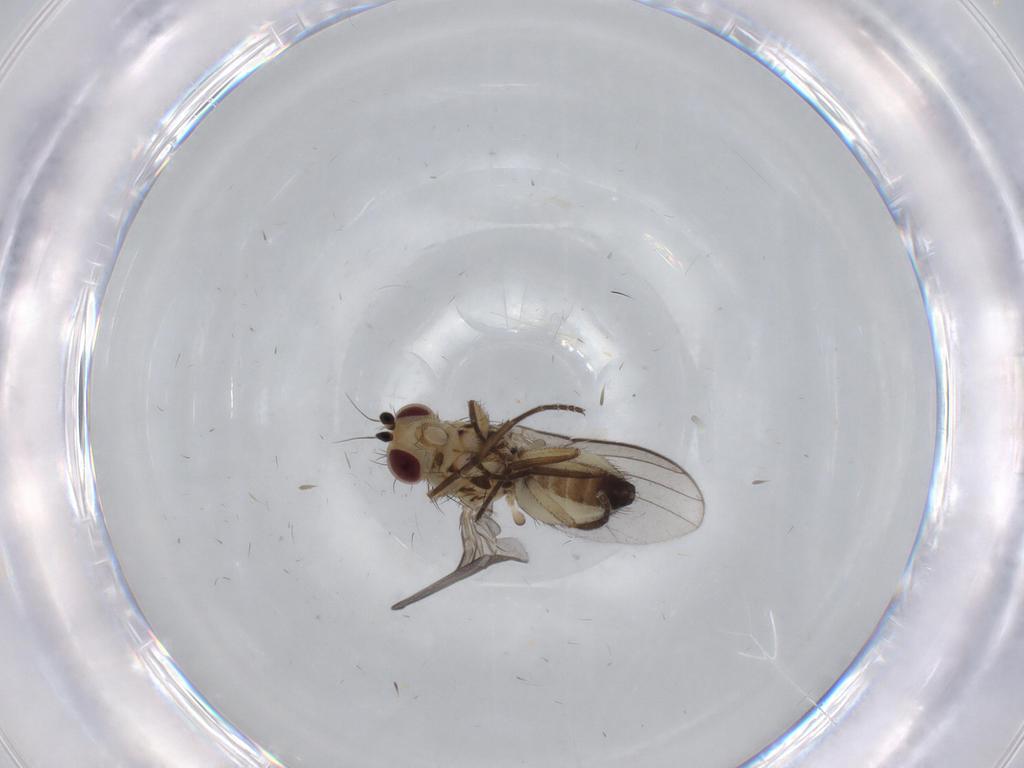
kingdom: Animalia
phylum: Arthropoda
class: Insecta
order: Diptera
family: Agromyzidae
